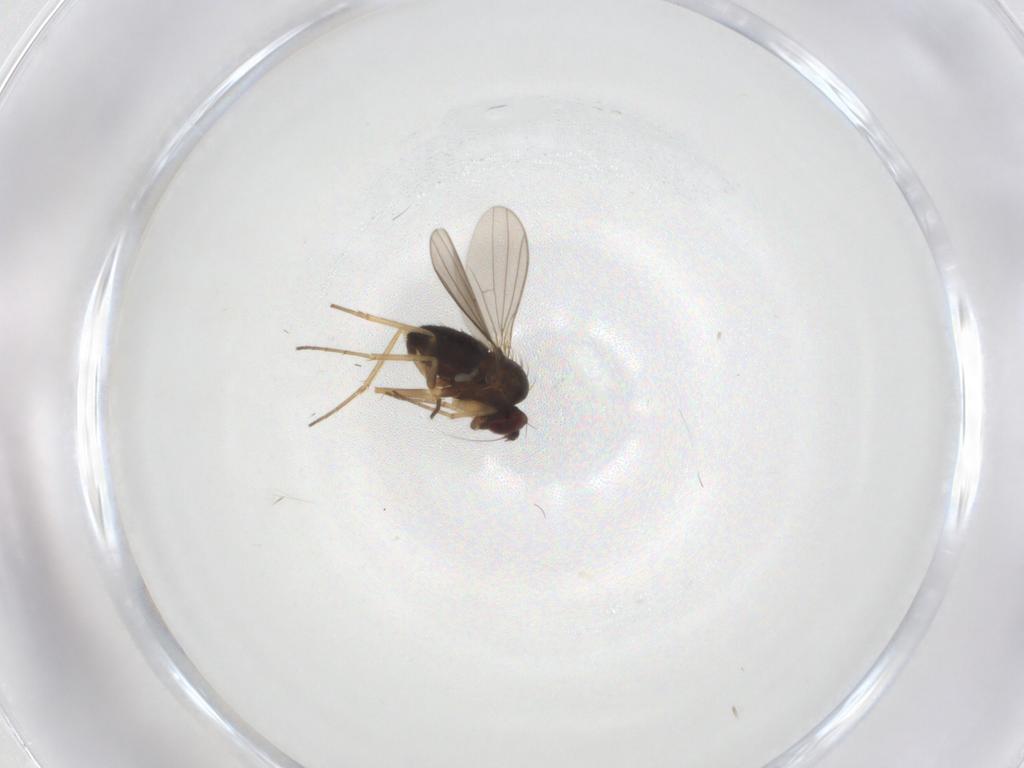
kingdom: Animalia
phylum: Arthropoda
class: Insecta
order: Diptera
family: Dolichopodidae
